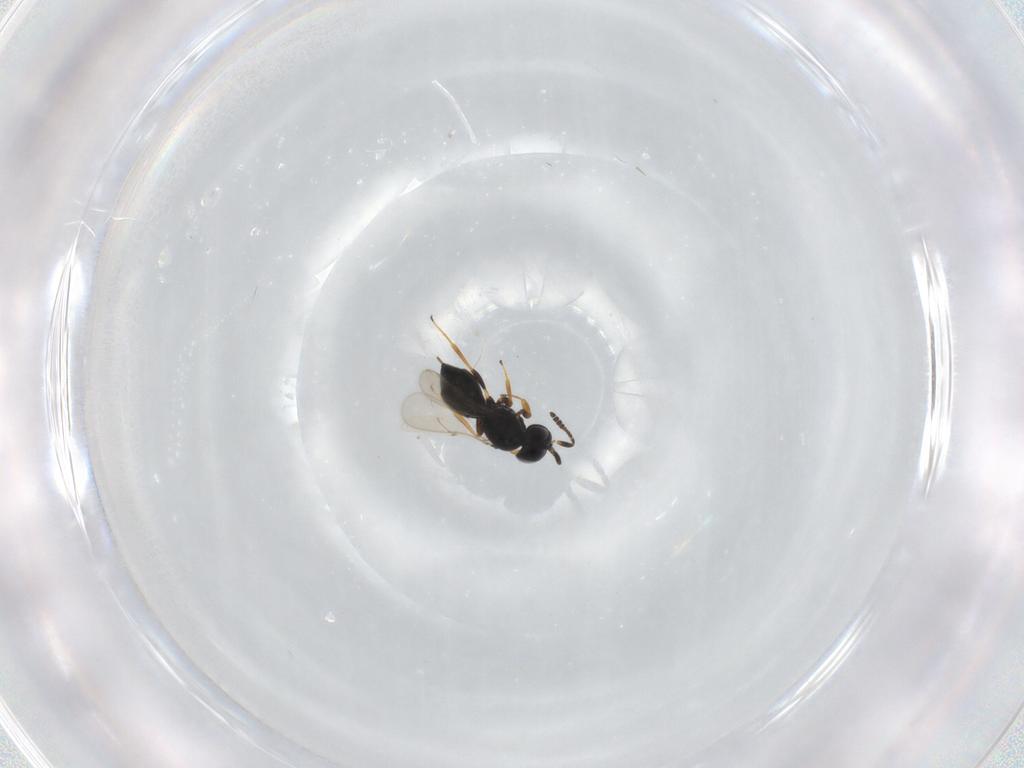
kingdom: Animalia
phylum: Arthropoda
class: Insecta
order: Hymenoptera
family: Scelionidae
